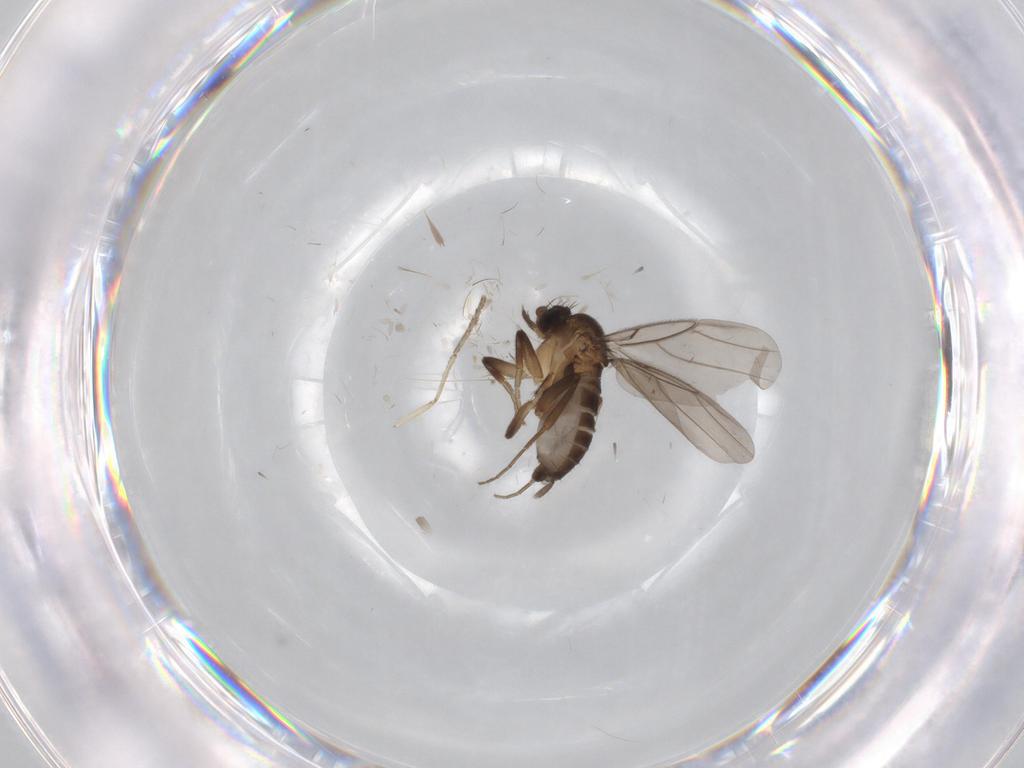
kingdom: Animalia
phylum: Arthropoda
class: Insecta
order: Diptera
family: Phoridae
